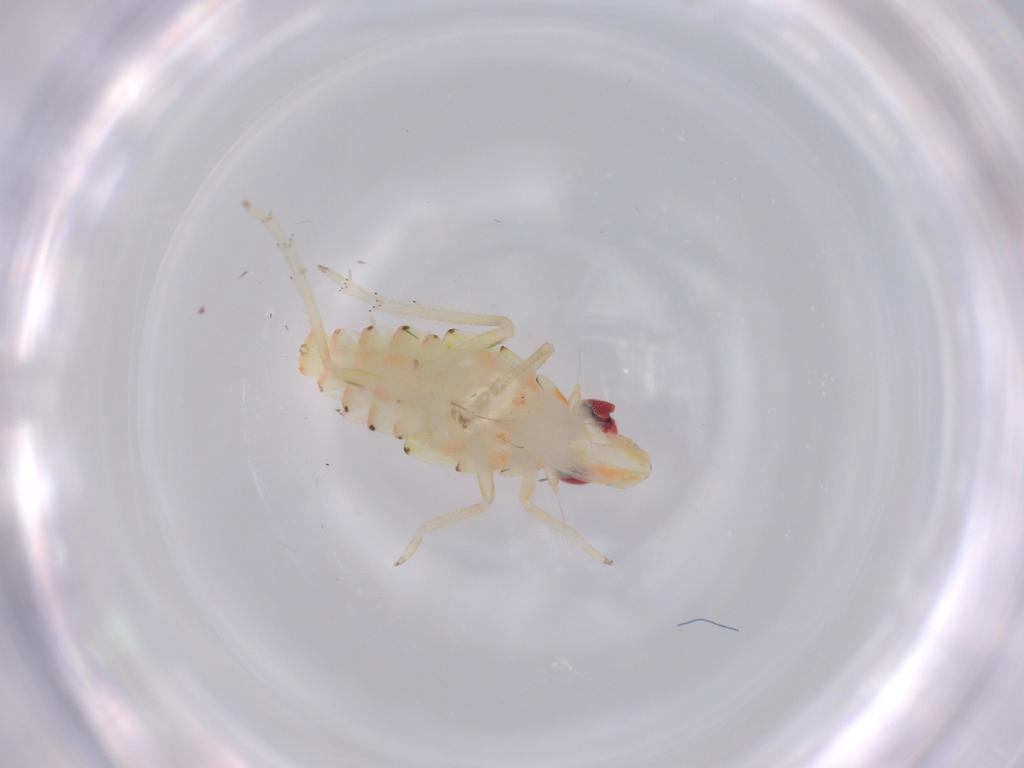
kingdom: Animalia
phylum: Arthropoda
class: Insecta
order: Hemiptera
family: Tropiduchidae
